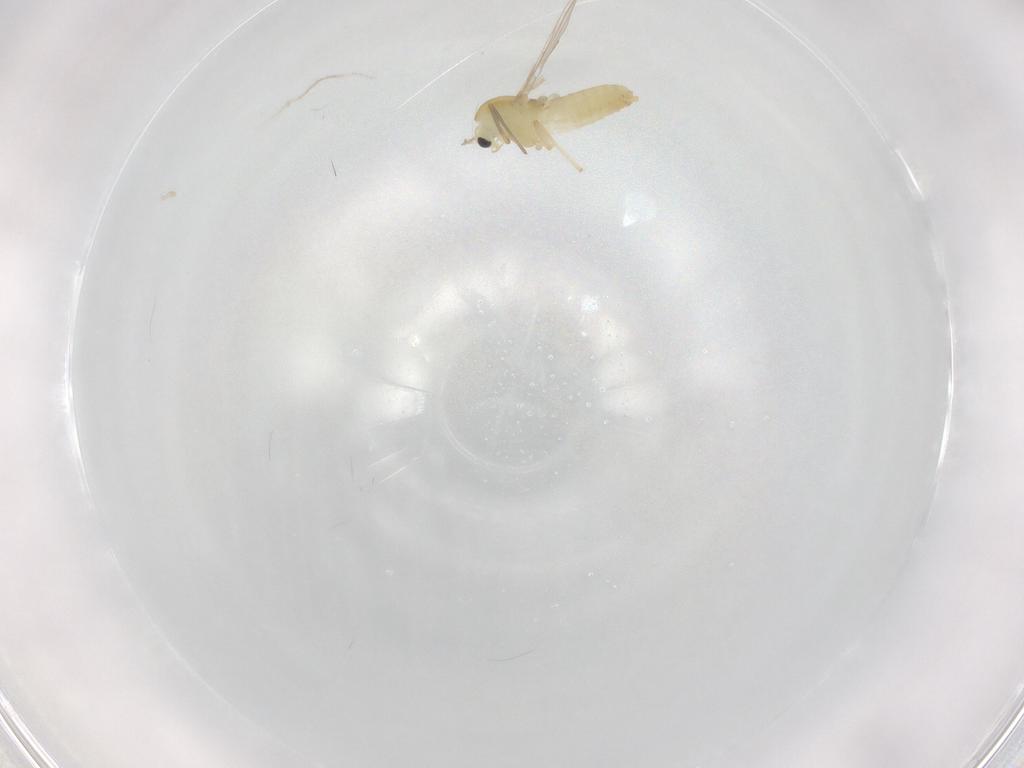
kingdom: Animalia
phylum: Arthropoda
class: Insecta
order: Diptera
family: Chironomidae
